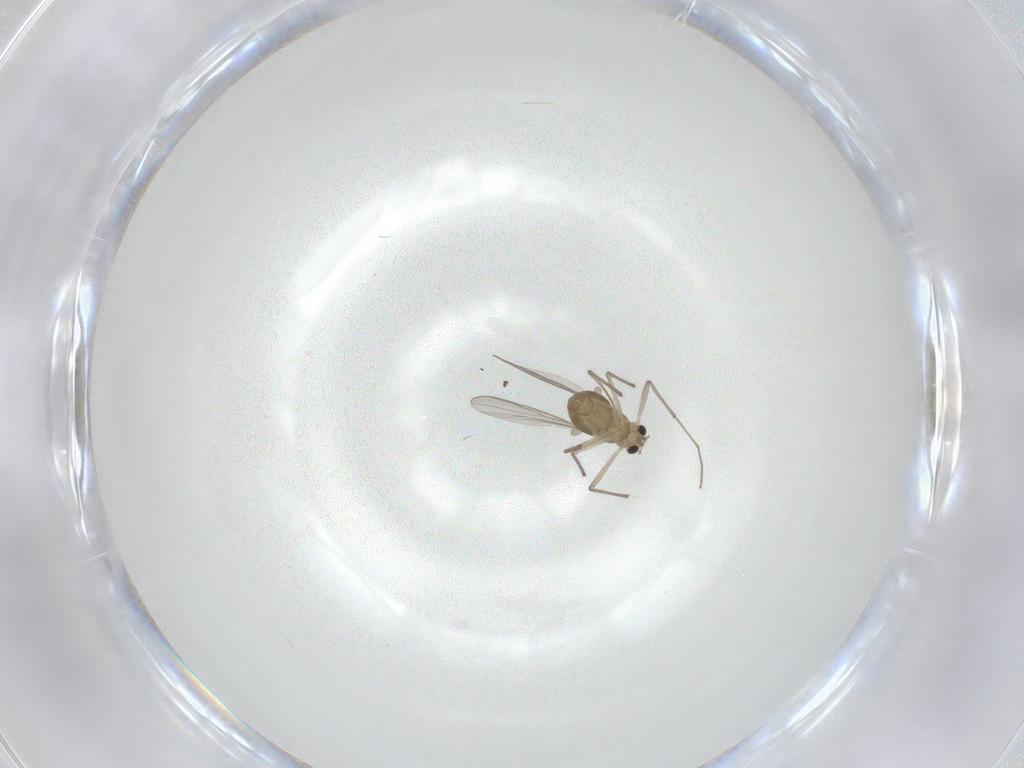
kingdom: Animalia
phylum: Arthropoda
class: Insecta
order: Diptera
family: Chironomidae
